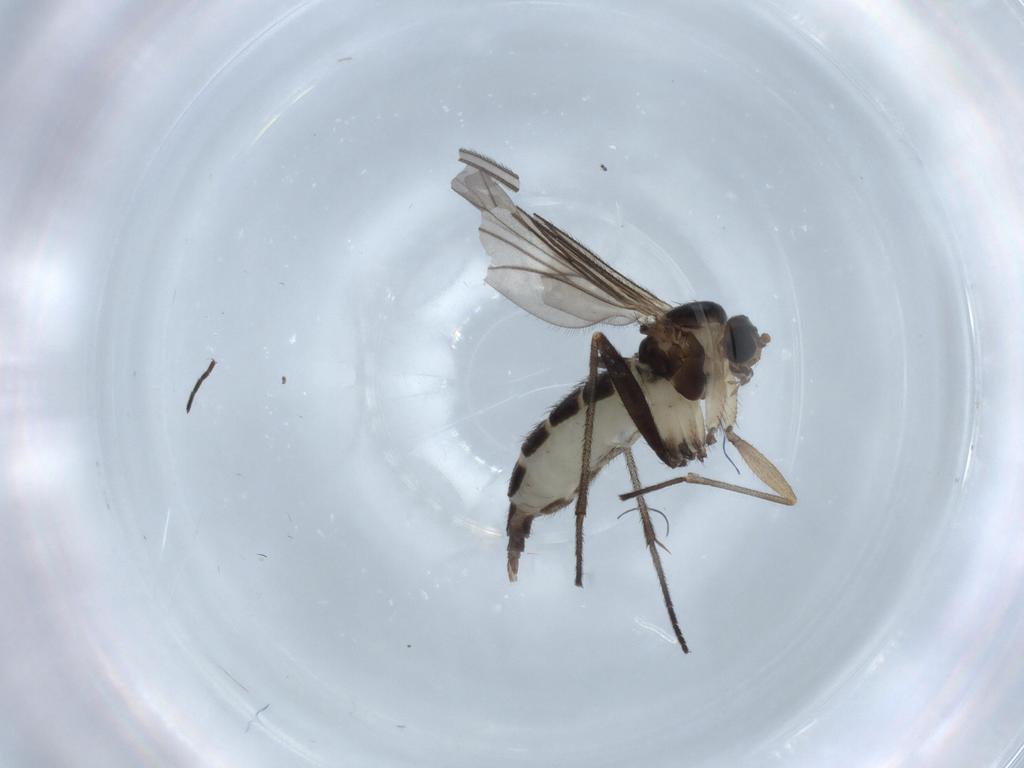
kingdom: Animalia
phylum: Arthropoda
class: Insecta
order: Diptera
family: Sciaridae
